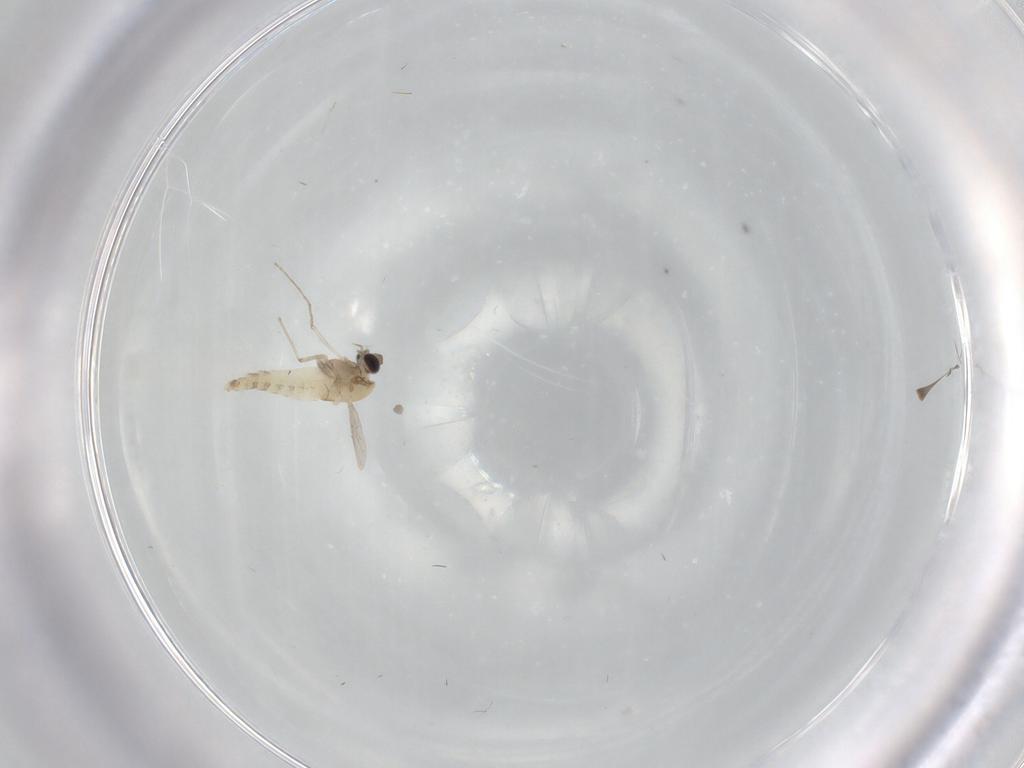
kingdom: Animalia
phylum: Arthropoda
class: Insecta
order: Diptera
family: Chironomidae
